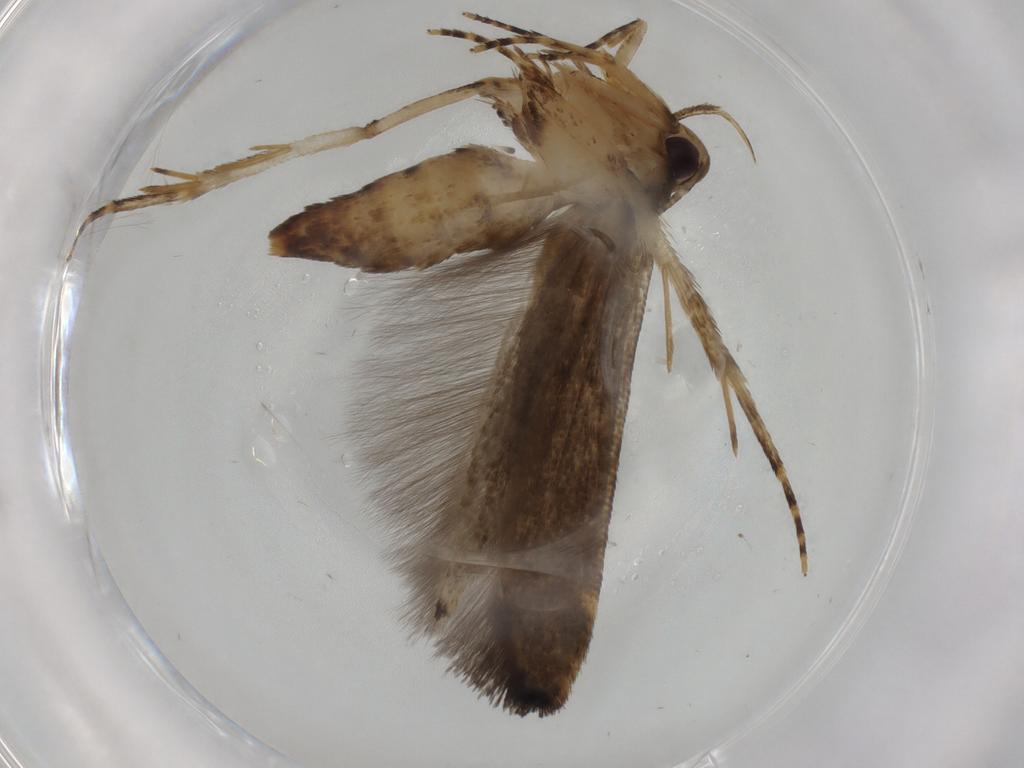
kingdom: Animalia
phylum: Arthropoda
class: Insecta
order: Lepidoptera
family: Cosmopterigidae
